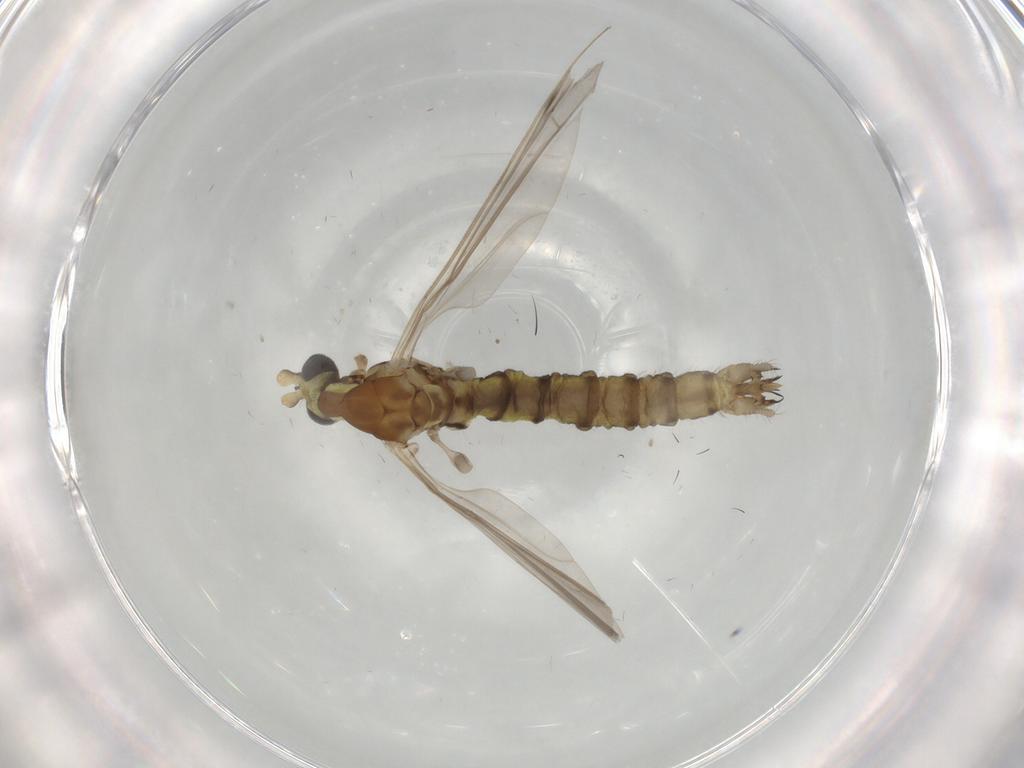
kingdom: Animalia
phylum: Arthropoda
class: Insecta
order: Diptera
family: Ceratopogonidae
